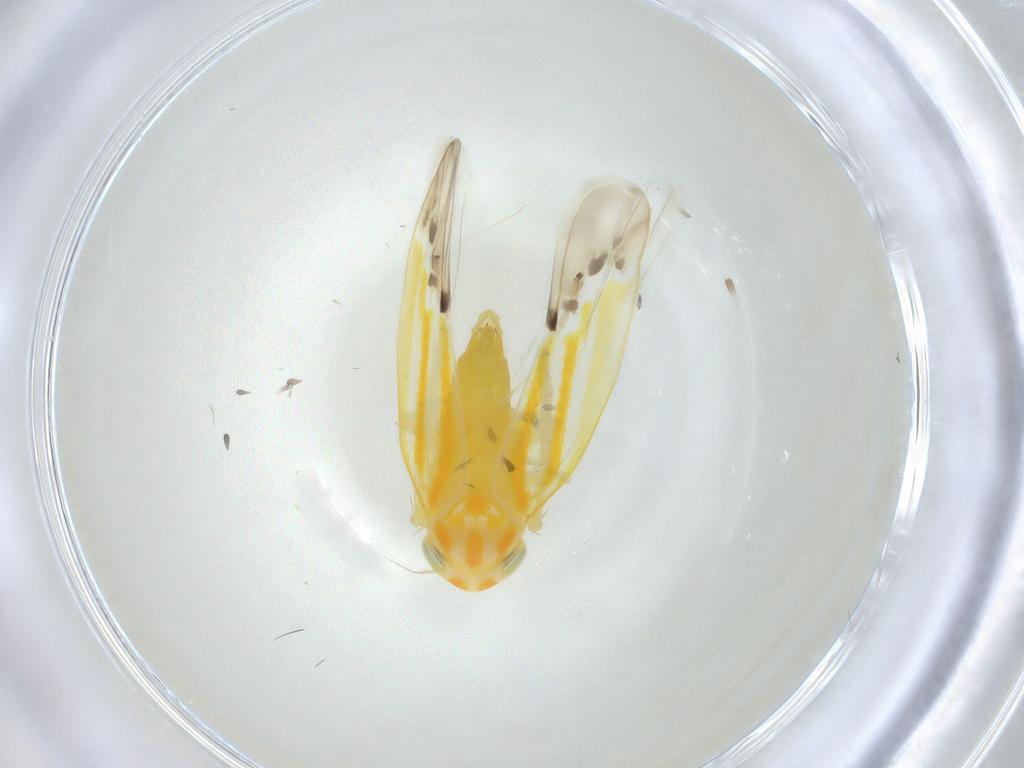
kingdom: Animalia
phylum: Arthropoda
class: Insecta
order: Hemiptera
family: Cicadellidae
